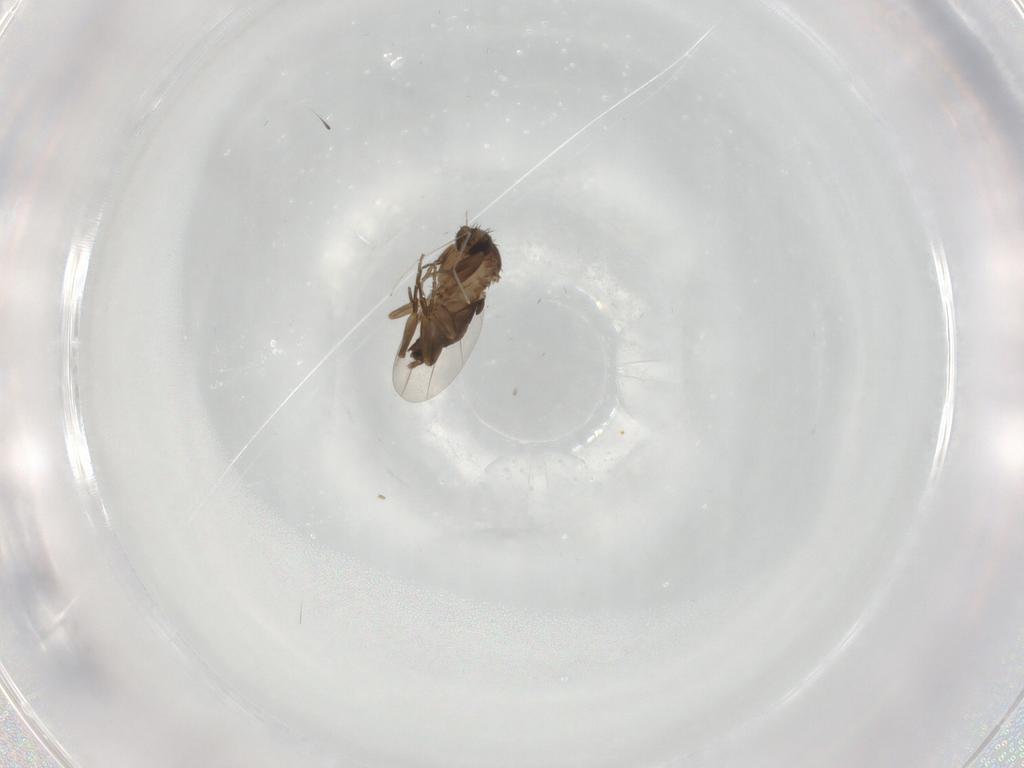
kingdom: Animalia
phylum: Arthropoda
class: Insecta
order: Diptera
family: Phoridae
